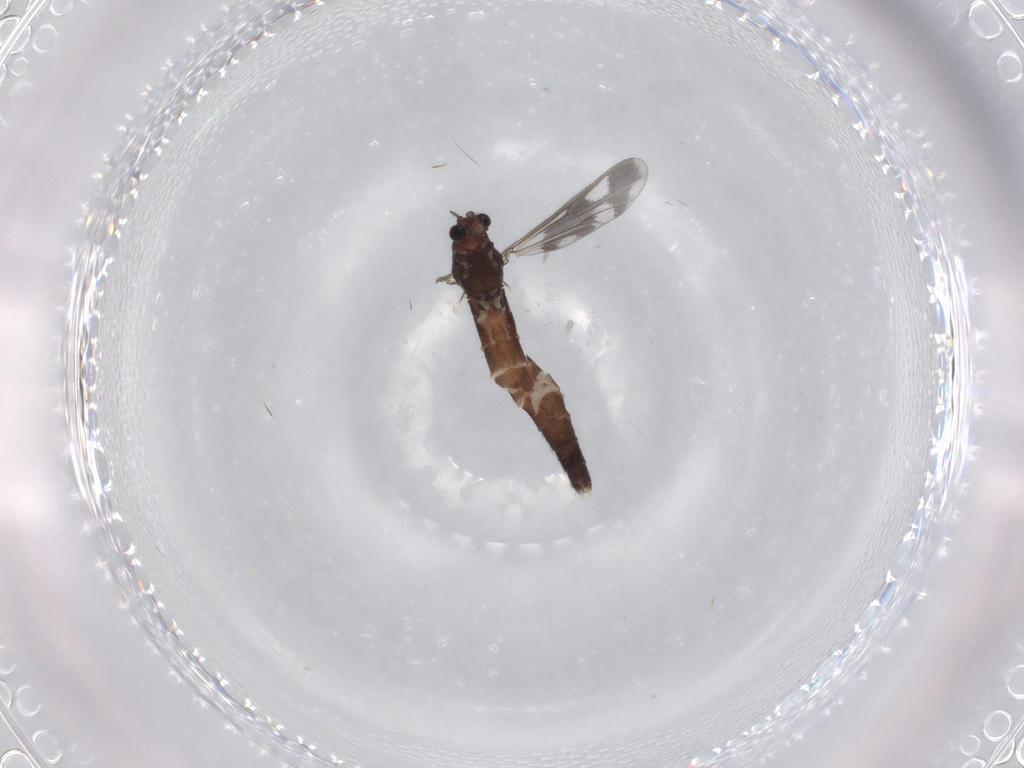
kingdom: Animalia
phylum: Arthropoda
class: Insecta
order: Diptera
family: Chironomidae
